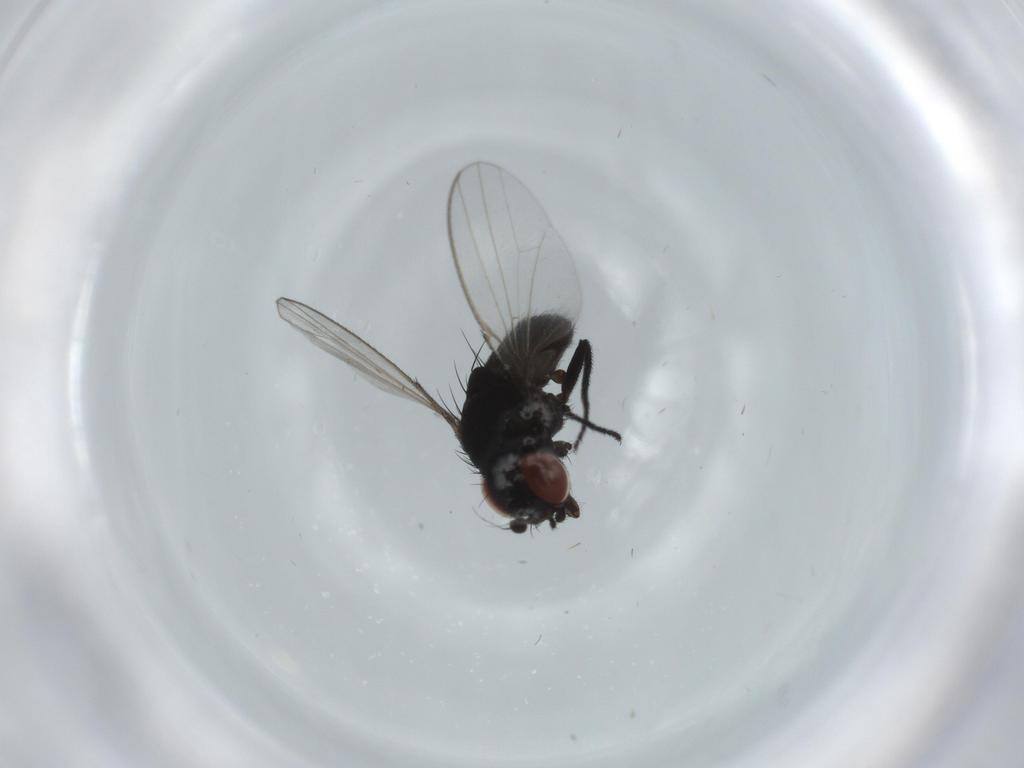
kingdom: Animalia
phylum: Arthropoda
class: Insecta
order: Diptera
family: Milichiidae
